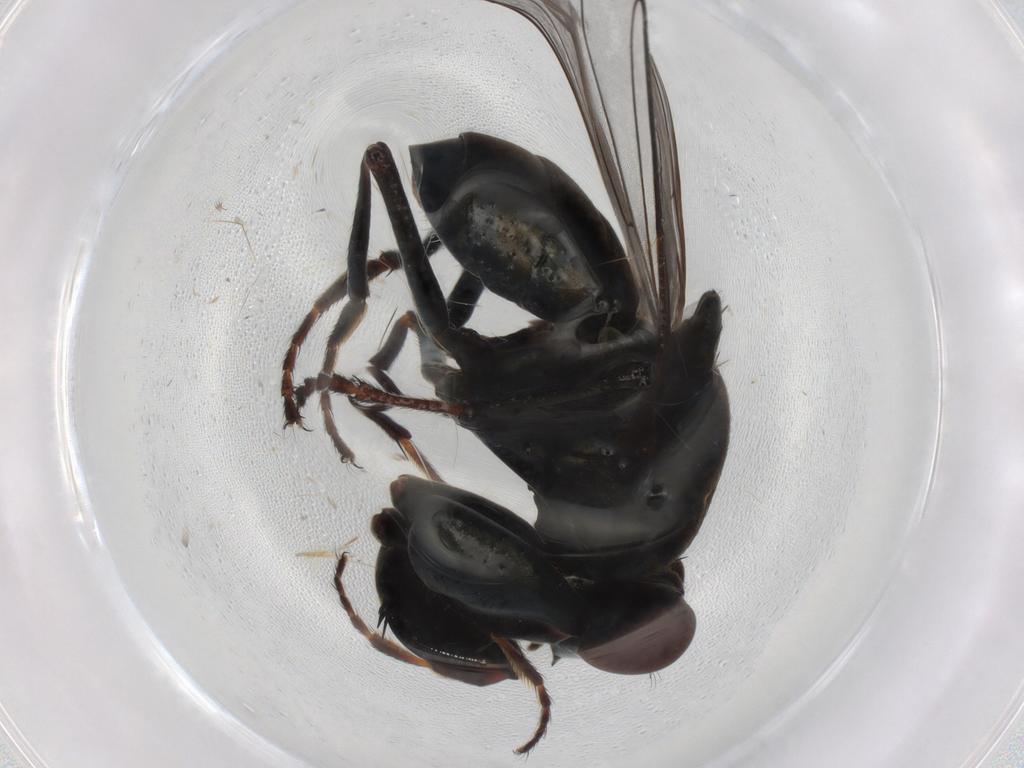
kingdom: Animalia
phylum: Arthropoda
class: Insecta
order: Diptera
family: Ephydridae
